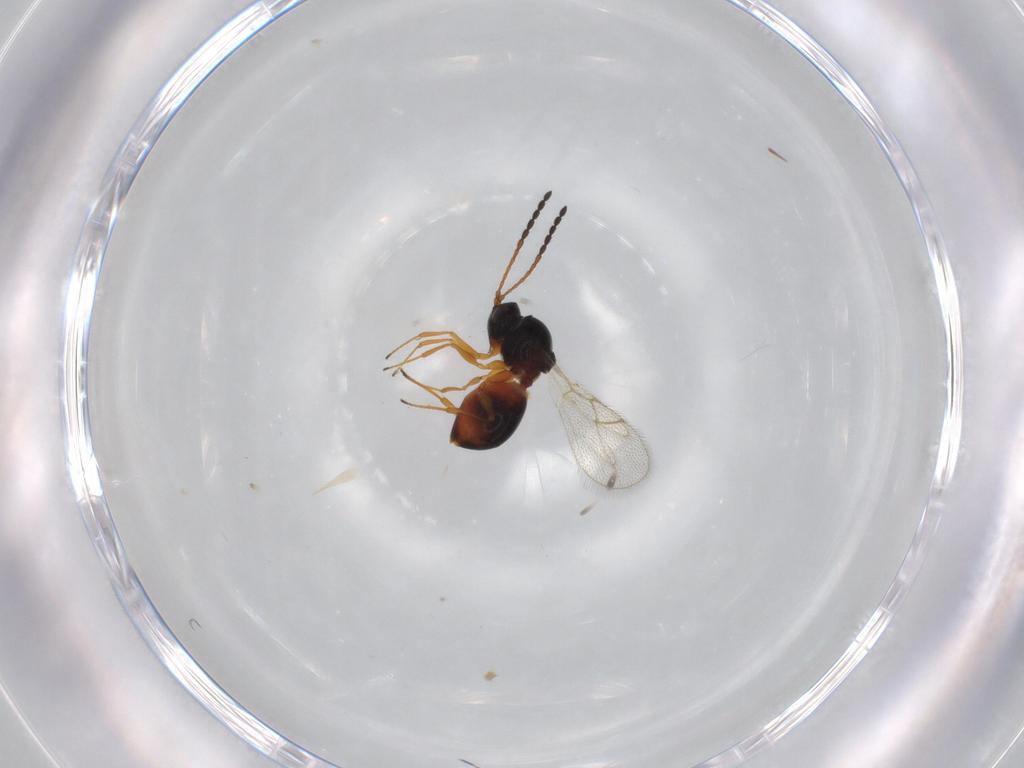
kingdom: Animalia
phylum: Arthropoda
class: Insecta
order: Hymenoptera
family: Figitidae
